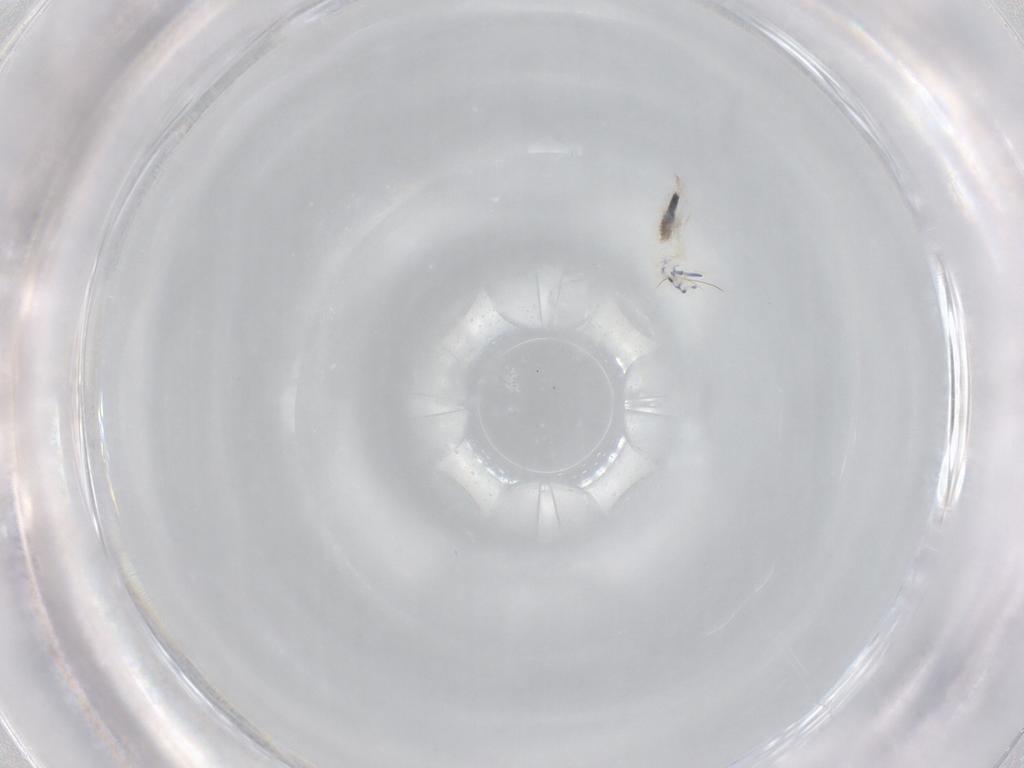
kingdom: Animalia
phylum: Arthropoda
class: Collembola
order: Entomobryomorpha
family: Entomobryidae
